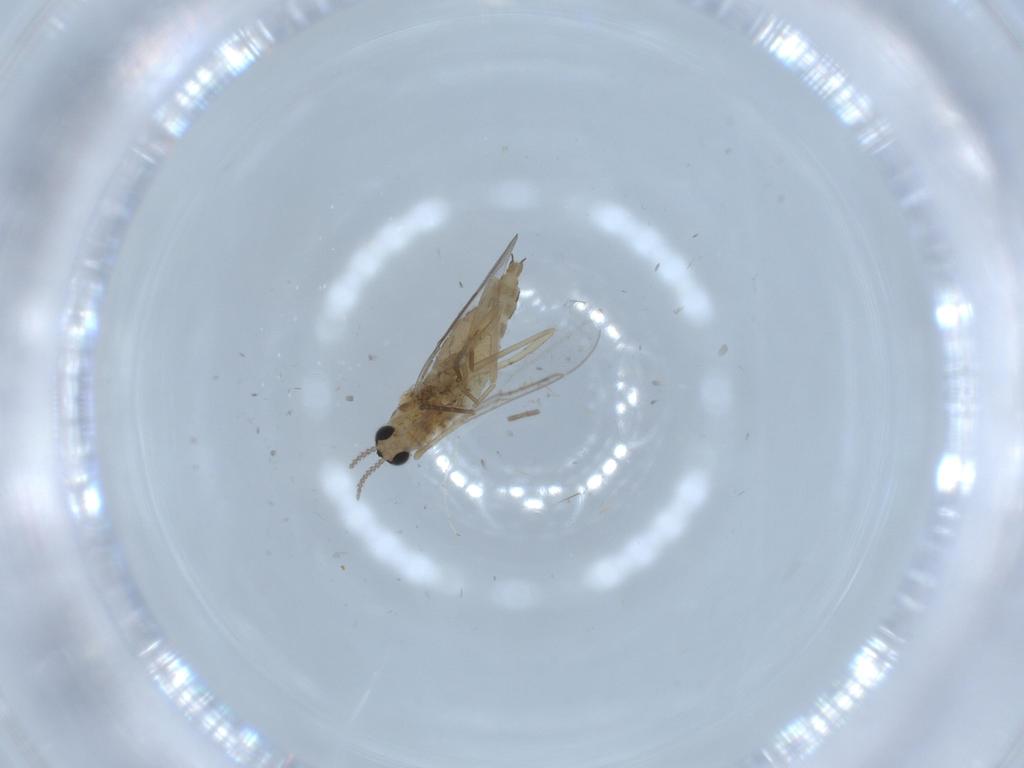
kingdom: Animalia
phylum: Arthropoda
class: Insecta
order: Diptera
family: Cecidomyiidae
